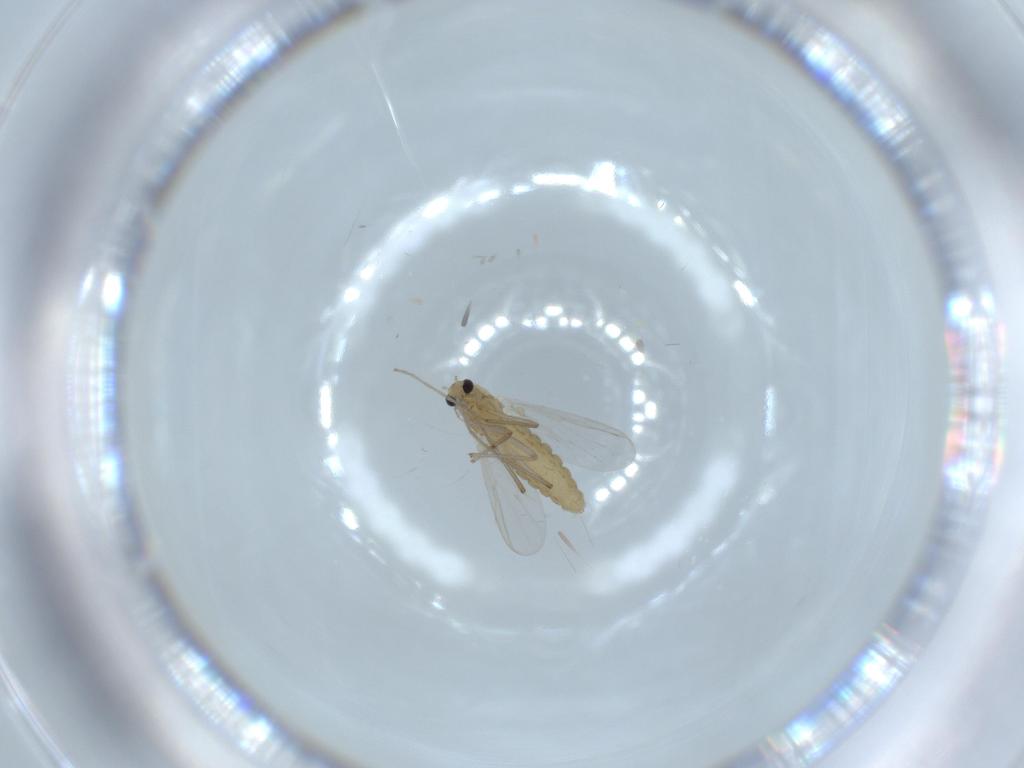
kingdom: Animalia
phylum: Arthropoda
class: Insecta
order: Diptera
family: Chironomidae
